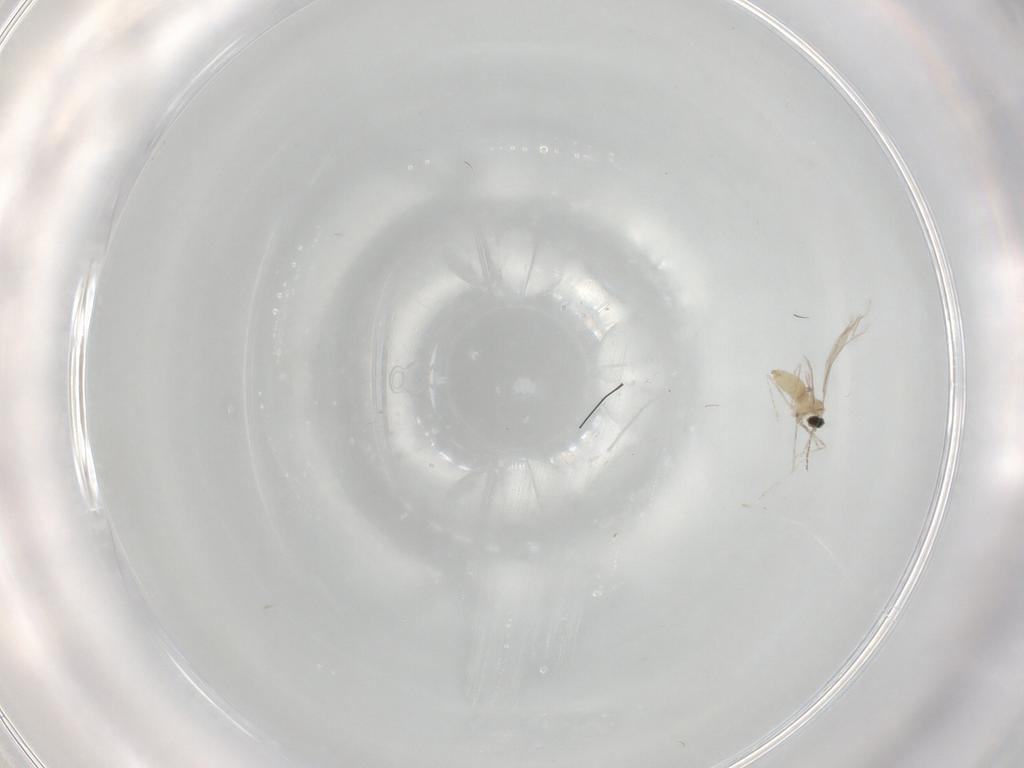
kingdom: Animalia
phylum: Arthropoda
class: Insecta
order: Diptera
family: Cecidomyiidae
